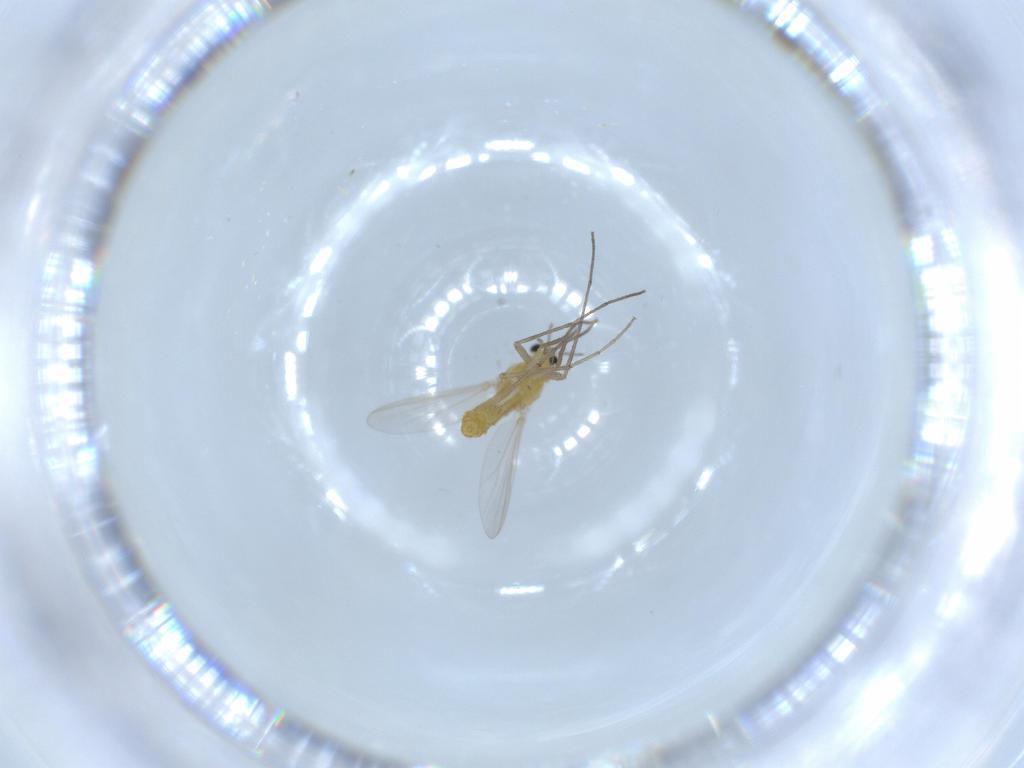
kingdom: Animalia
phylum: Arthropoda
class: Insecta
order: Diptera
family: Chironomidae
